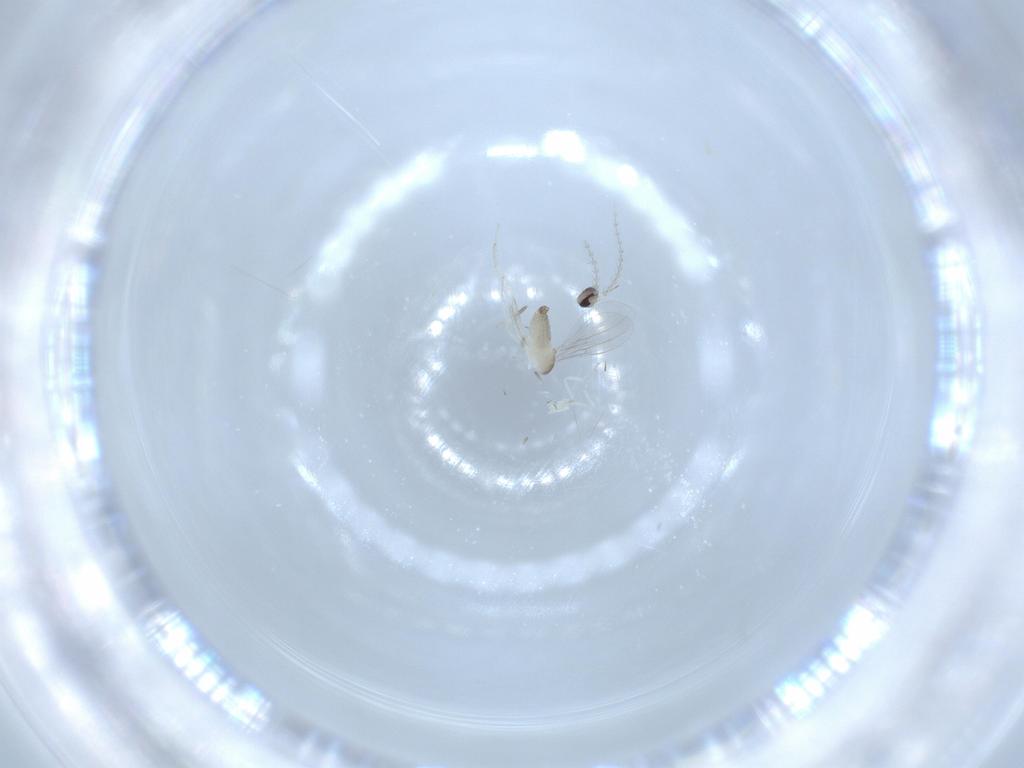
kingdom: Animalia
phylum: Arthropoda
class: Insecta
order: Diptera
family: Cecidomyiidae
